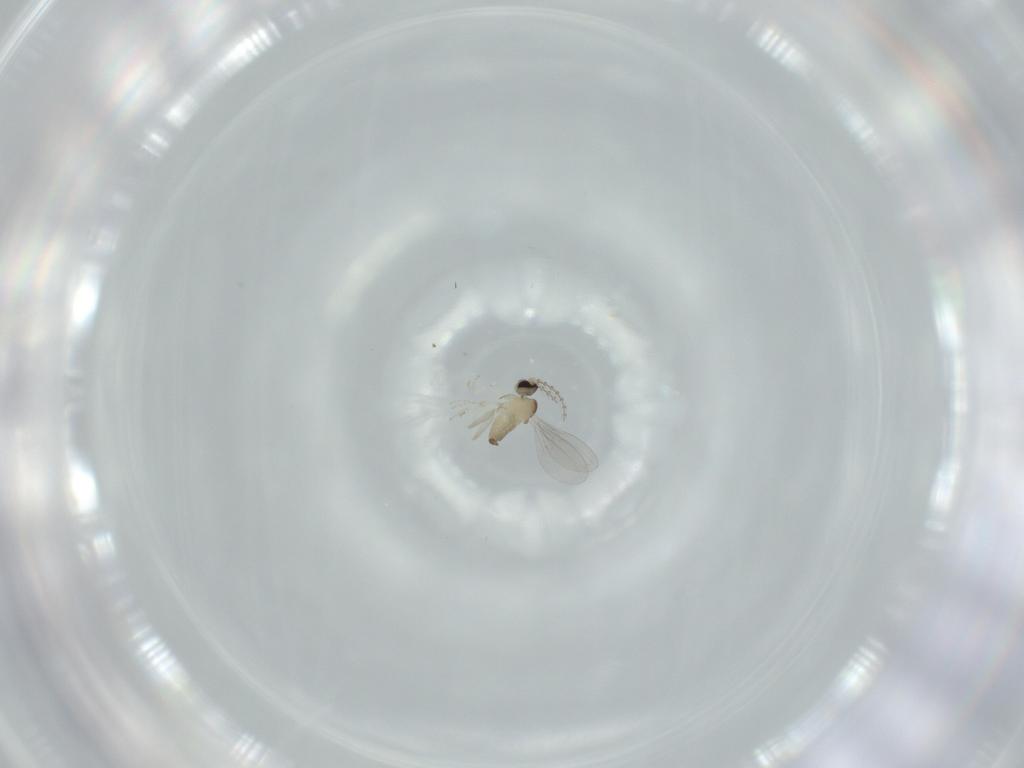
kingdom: Animalia
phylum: Arthropoda
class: Insecta
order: Diptera
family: Cecidomyiidae
